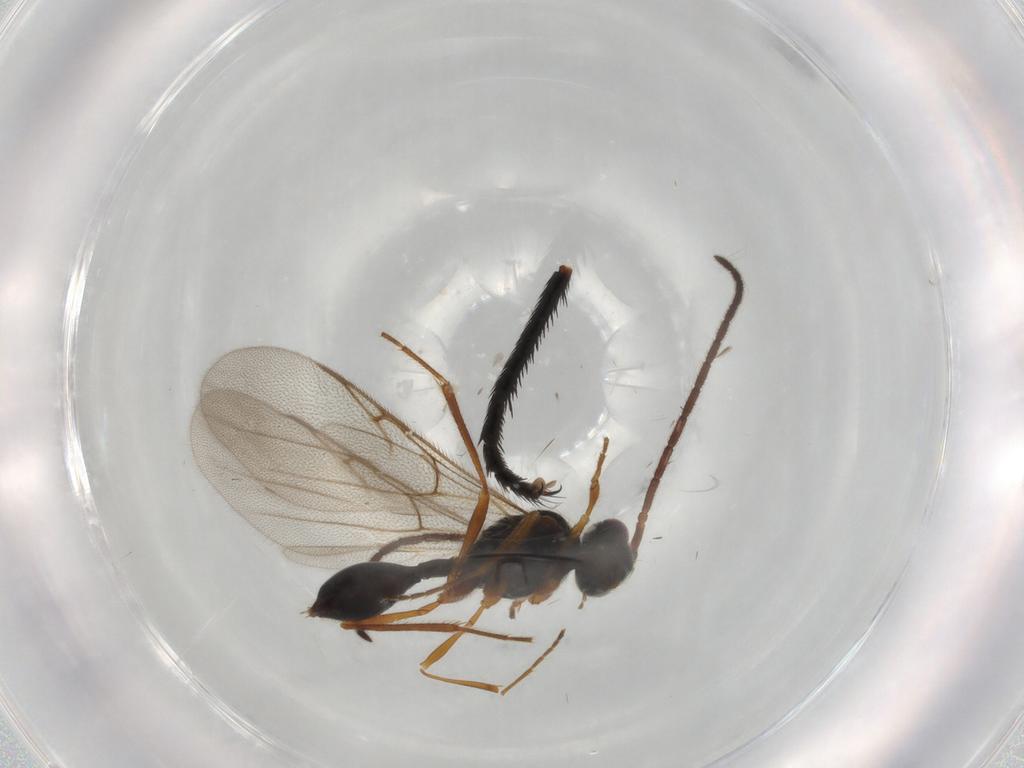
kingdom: Animalia
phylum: Arthropoda
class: Insecta
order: Hymenoptera
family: Diapriidae
